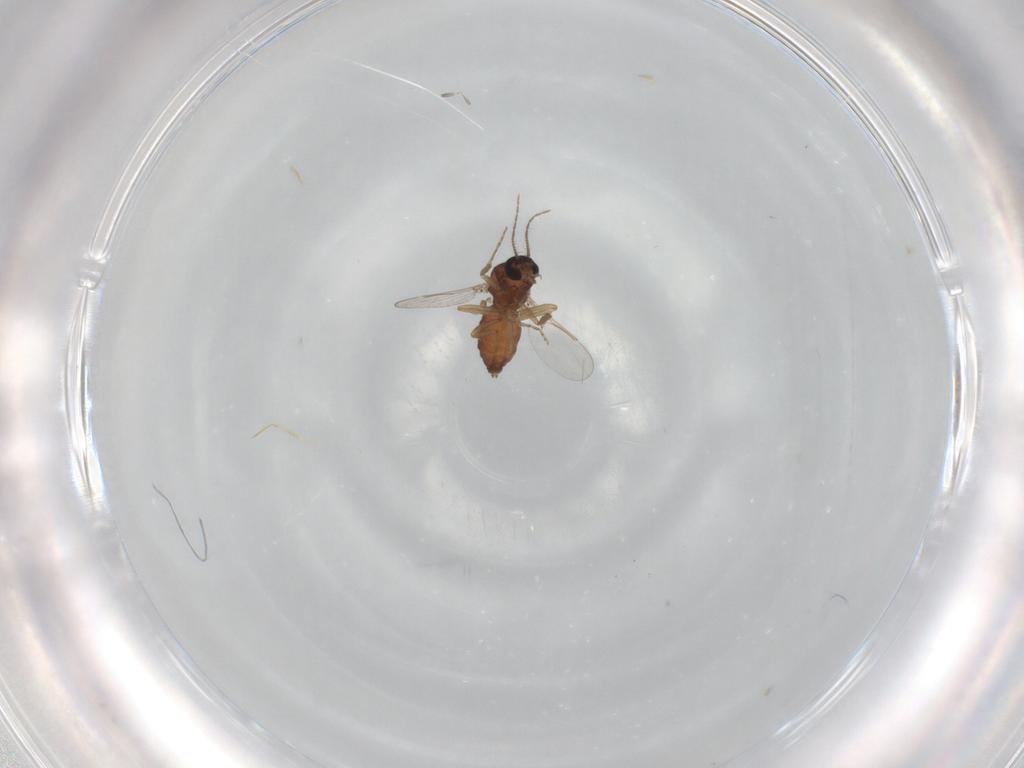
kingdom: Animalia
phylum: Arthropoda
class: Insecta
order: Diptera
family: Ceratopogonidae
